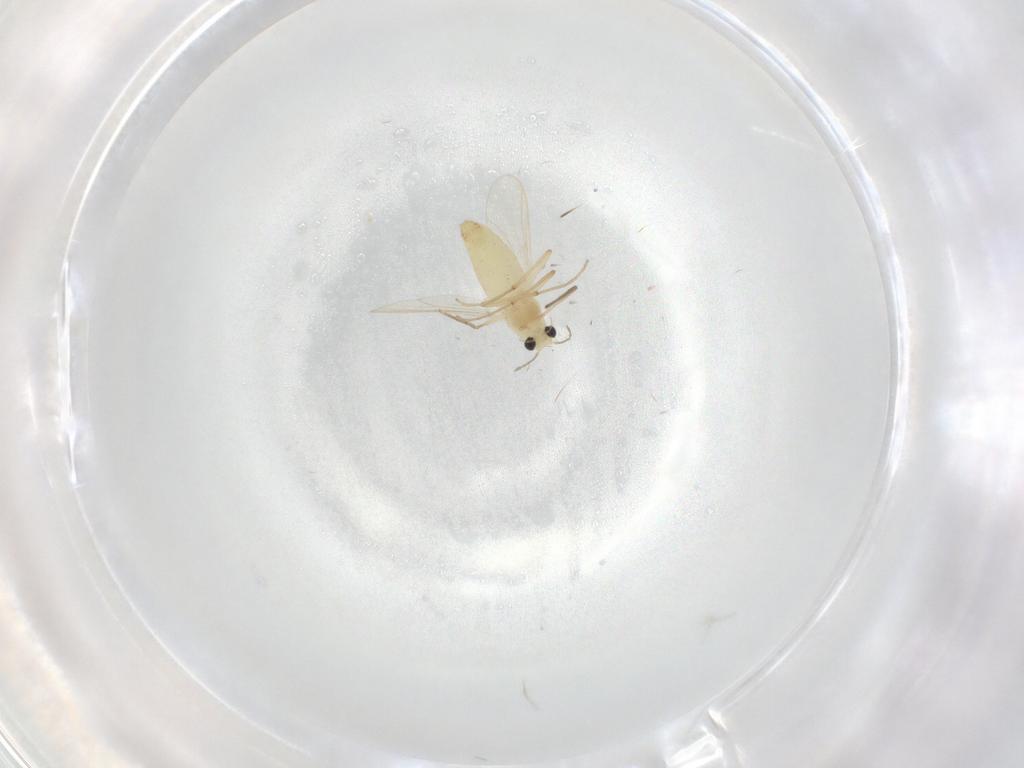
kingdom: Animalia
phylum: Arthropoda
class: Insecta
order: Diptera
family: Chironomidae
